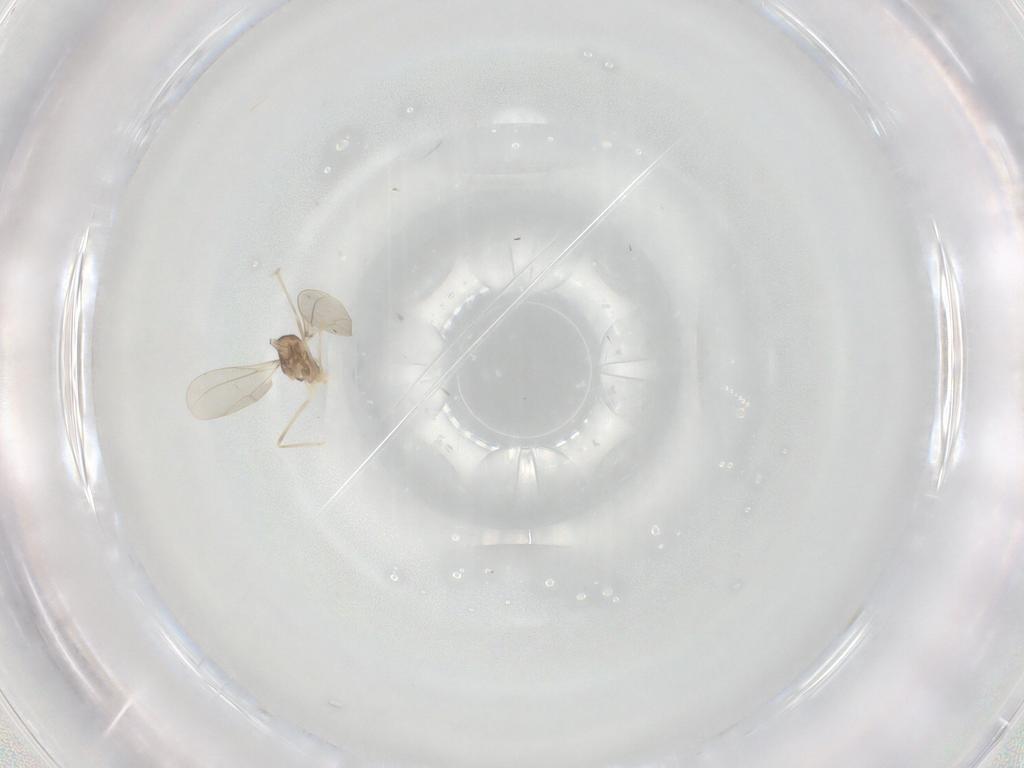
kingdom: Animalia
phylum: Arthropoda
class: Insecta
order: Diptera
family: Cecidomyiidae
